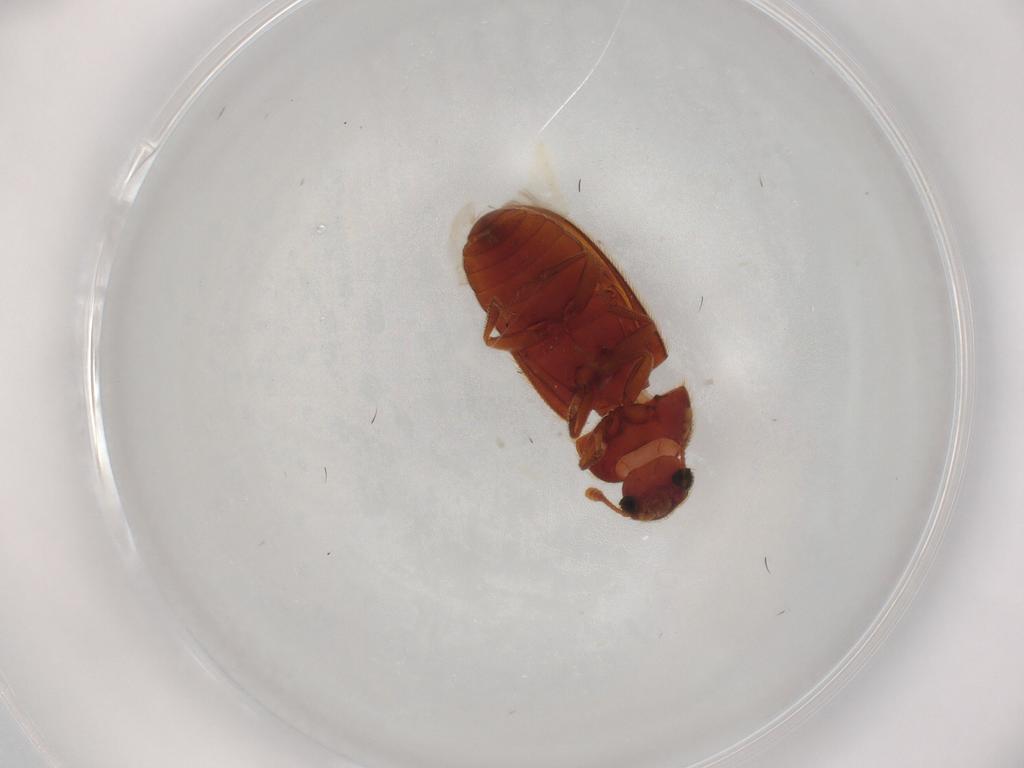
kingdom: Animalia
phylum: Arthropoda
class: Insecta
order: Coleoptera
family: Bostrichidae
